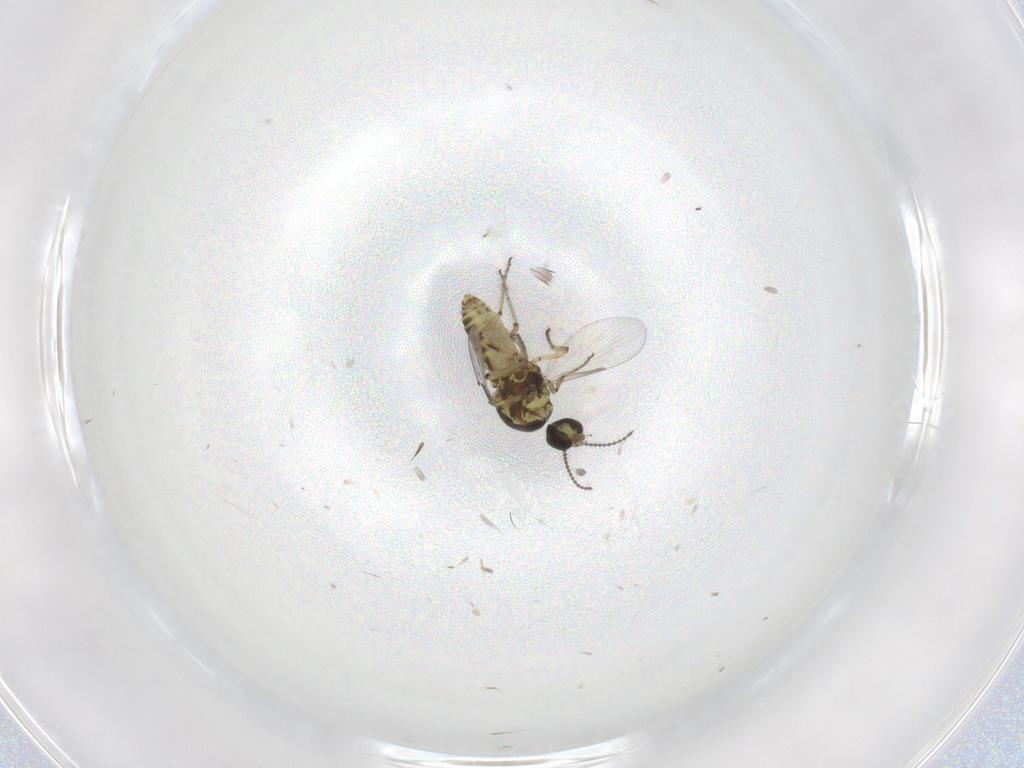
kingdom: Animalia
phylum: Arthropoda
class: Insecta
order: Diptera
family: Ceratopogonidae
